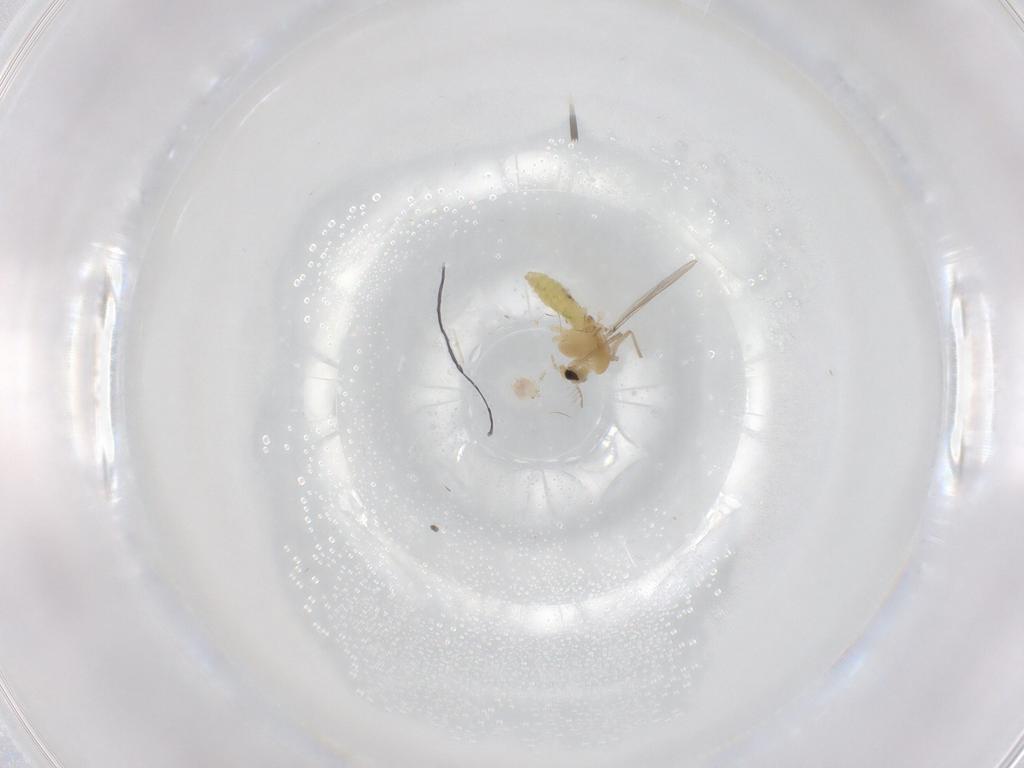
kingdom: Animalia
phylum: Arthropoda
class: Insecta
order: Diptera
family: Chironomidae
